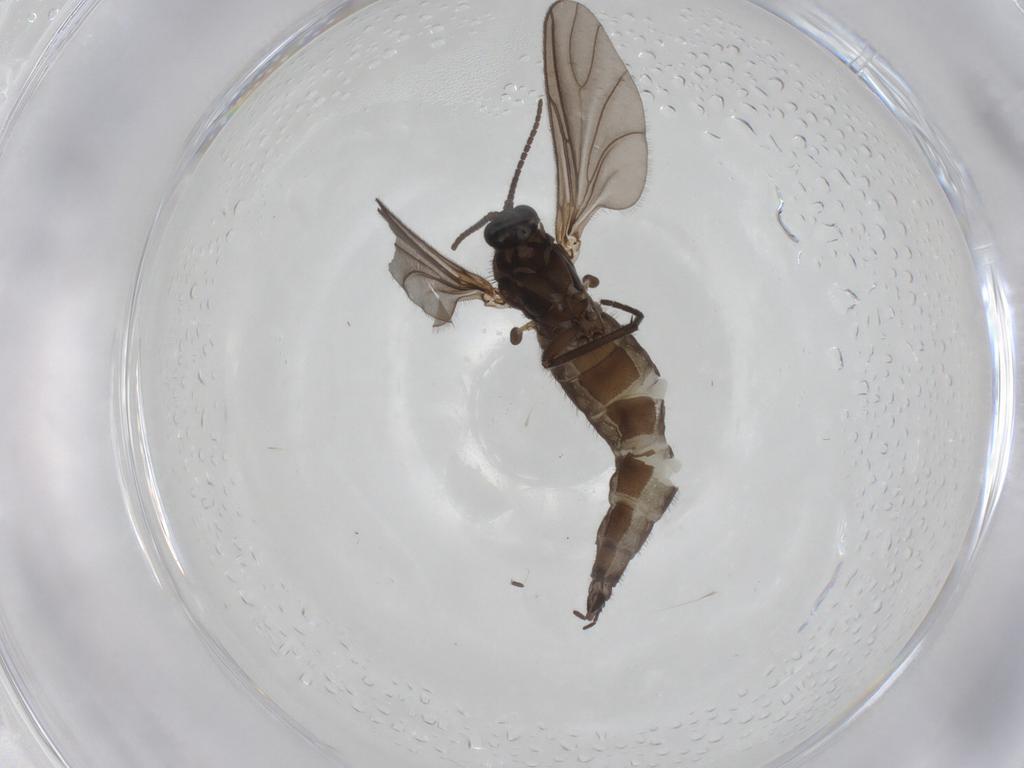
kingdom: Animalia
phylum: Arthropoda
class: Insecta
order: Diptera
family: Sciaridae
